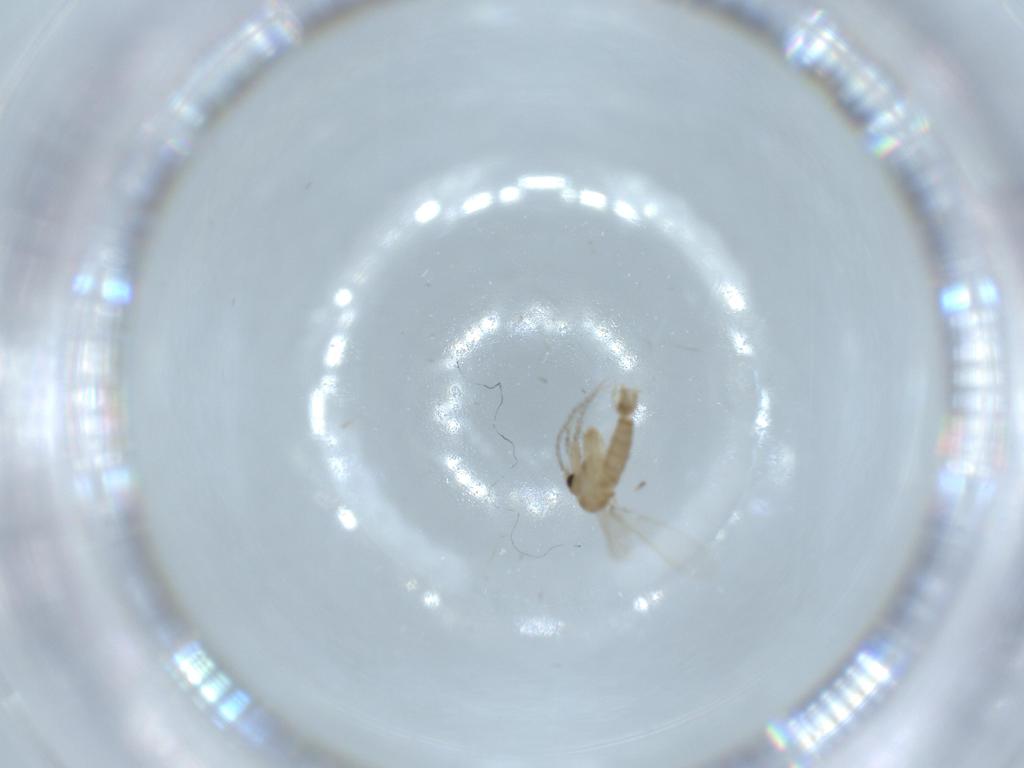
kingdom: Animalia
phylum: Arthropoda
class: Insecta
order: Diptera
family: Psychodidae
